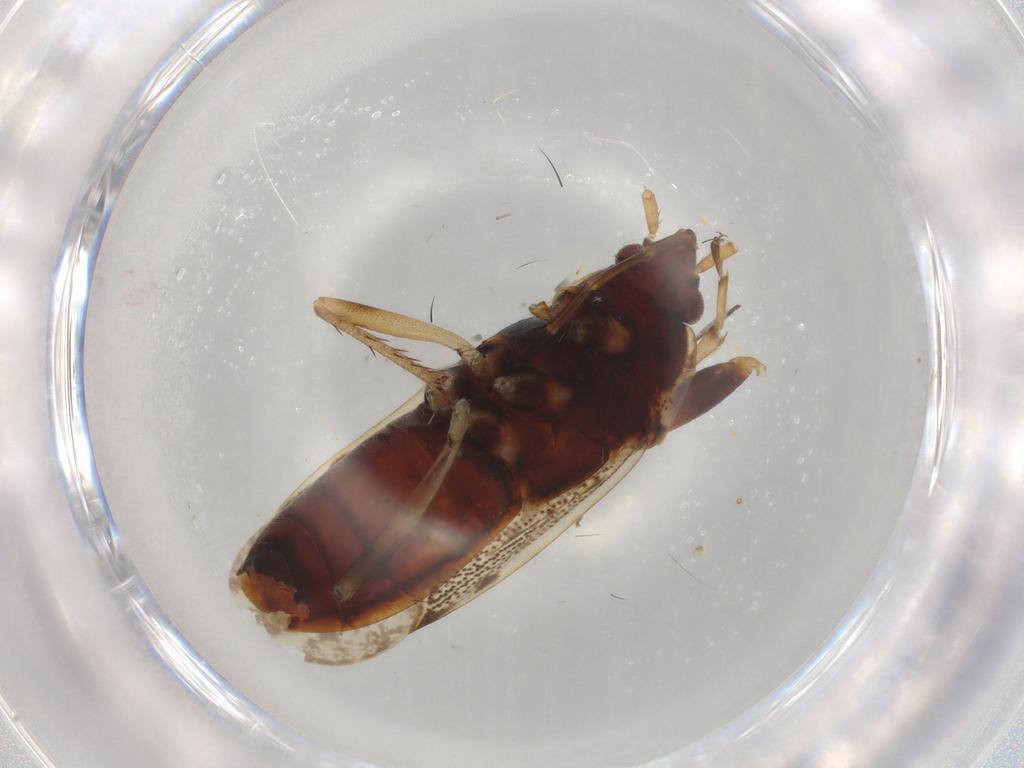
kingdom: Animalia
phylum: Arthropoda
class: Insecta
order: Hemiptera
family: Rhyparochromidae
